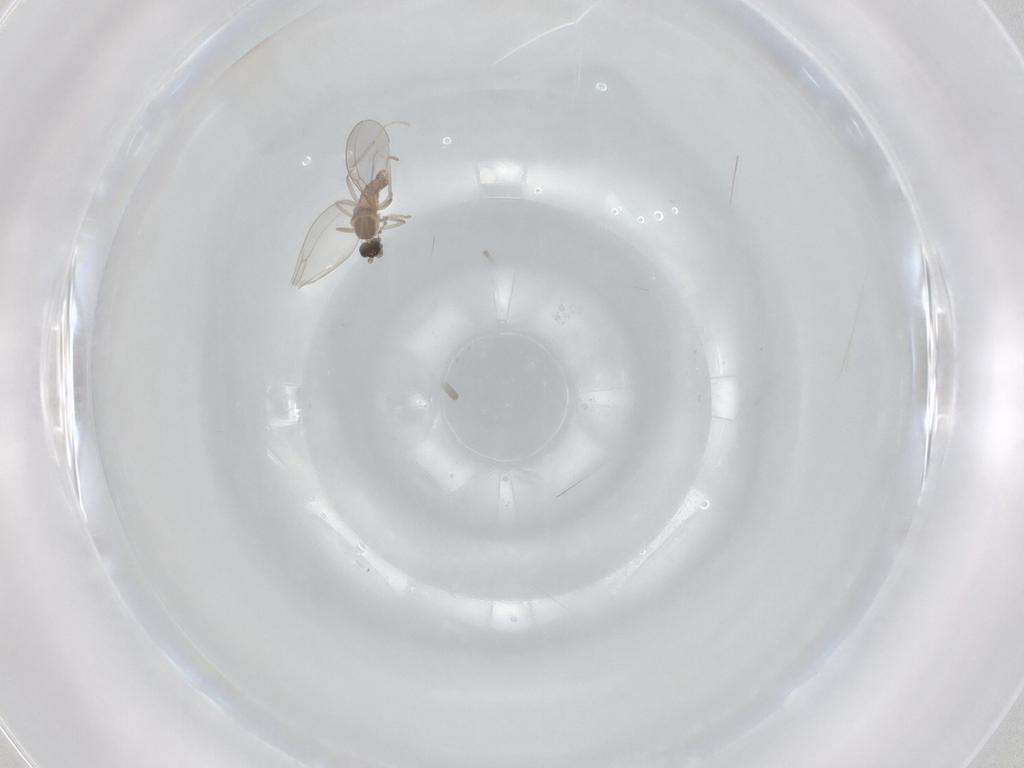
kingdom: Animalia
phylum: Arthropoda
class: Insecta
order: Diptera
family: Cecidomyiidae
